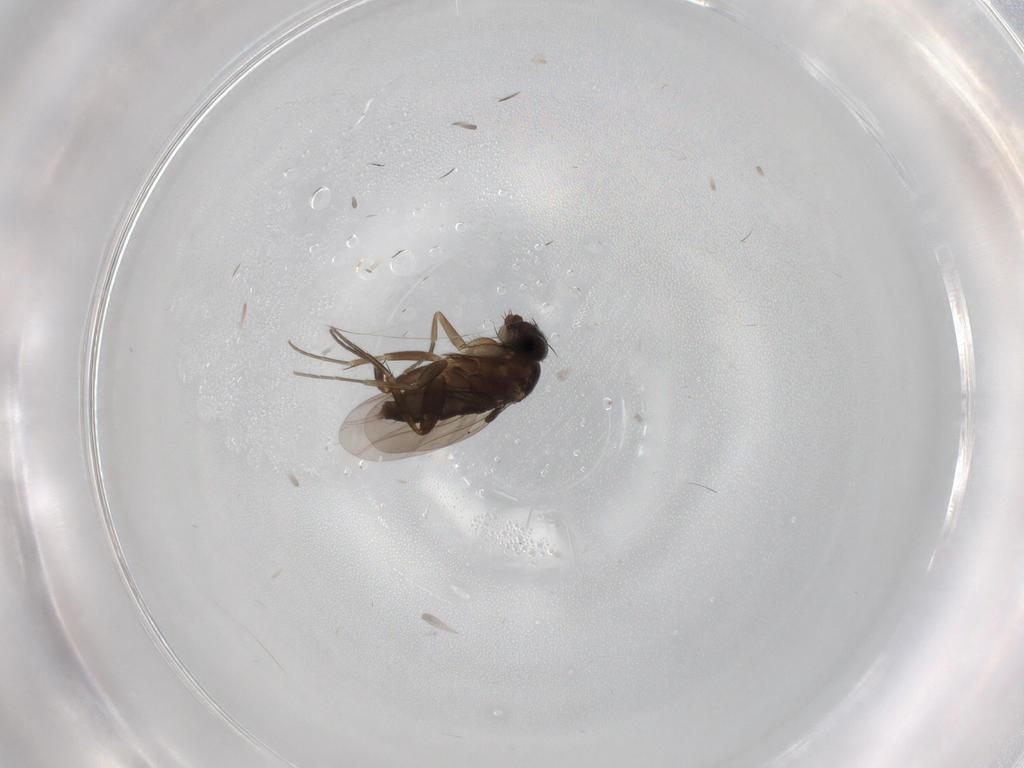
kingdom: Animalia
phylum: Arthropoda
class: Insecta
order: Diptera
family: Phoridae
